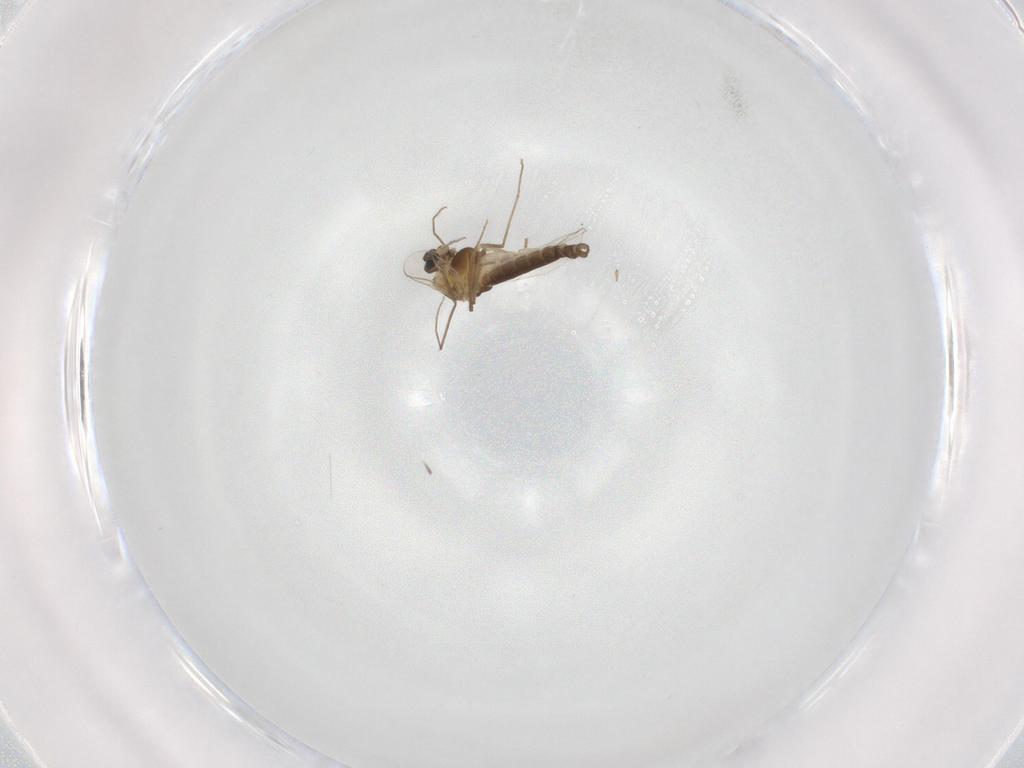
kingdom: Animalia
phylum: Arthropoda
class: Insecta
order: Diptera
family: Chironomidae
